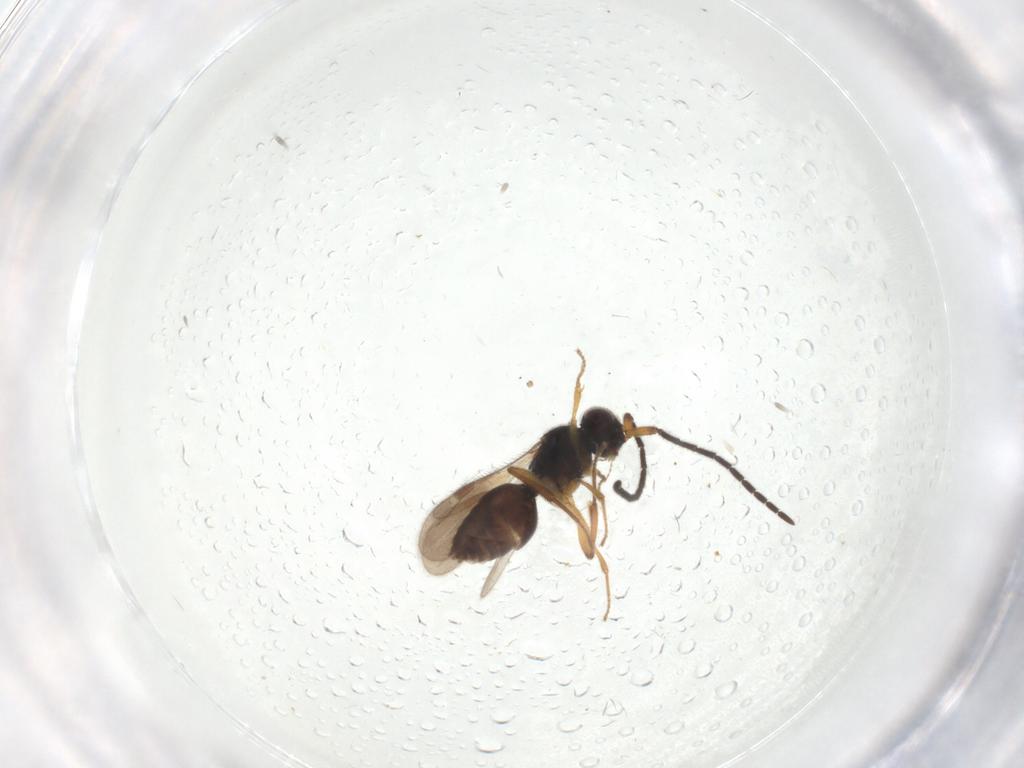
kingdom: Animalia
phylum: Arthropoda
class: Insecta
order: Hymenoptera
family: Megaspilidae
